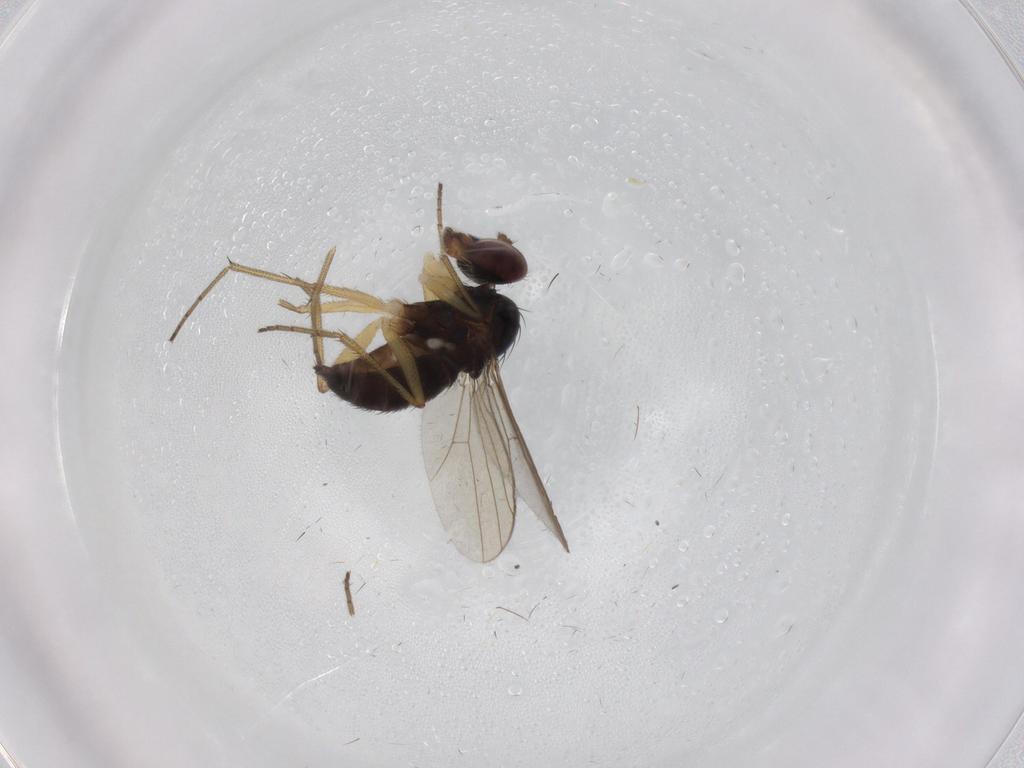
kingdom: Animalia
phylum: Arthropoda
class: Insecta
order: Diptera
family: Dolichopodidae
